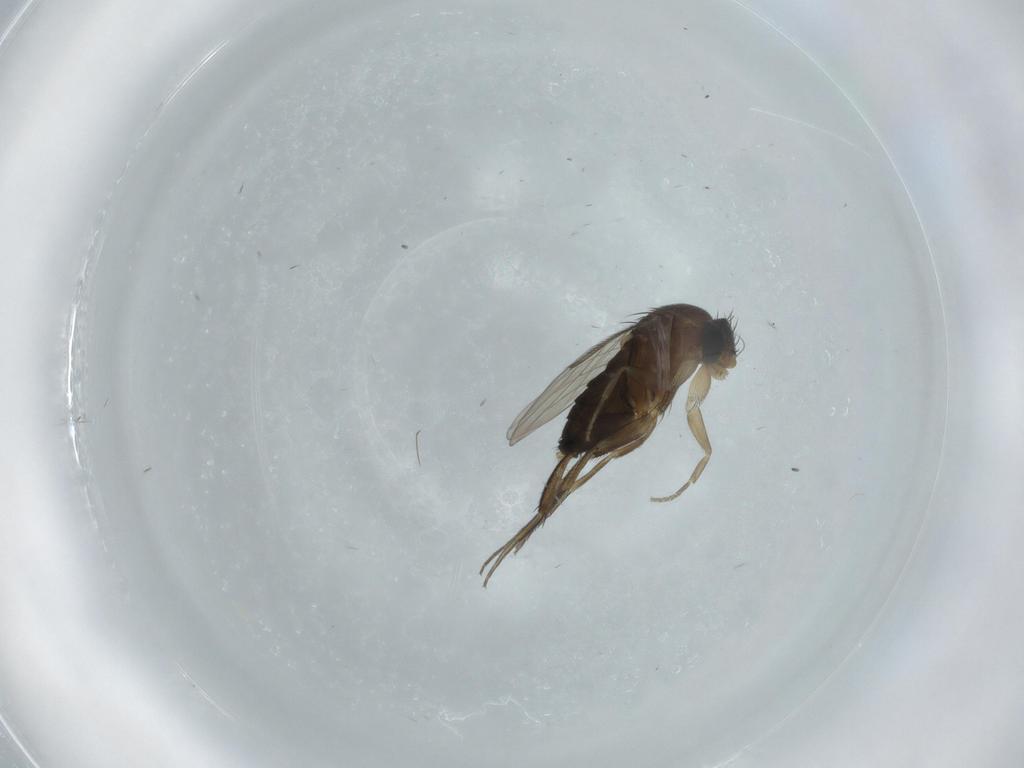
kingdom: Animalia
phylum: Arthropoda
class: Insecta
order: Diptera
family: Phoridae
